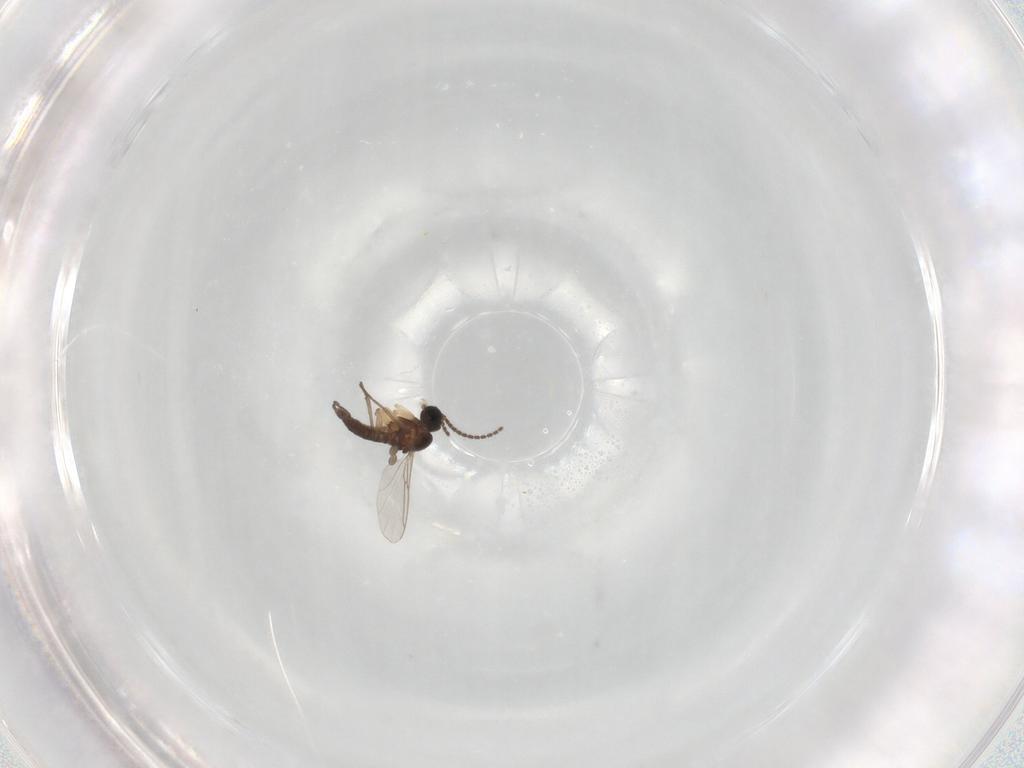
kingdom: Animalia
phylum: Arthropoda
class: Insecta
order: Diptera
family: Sciaridae
